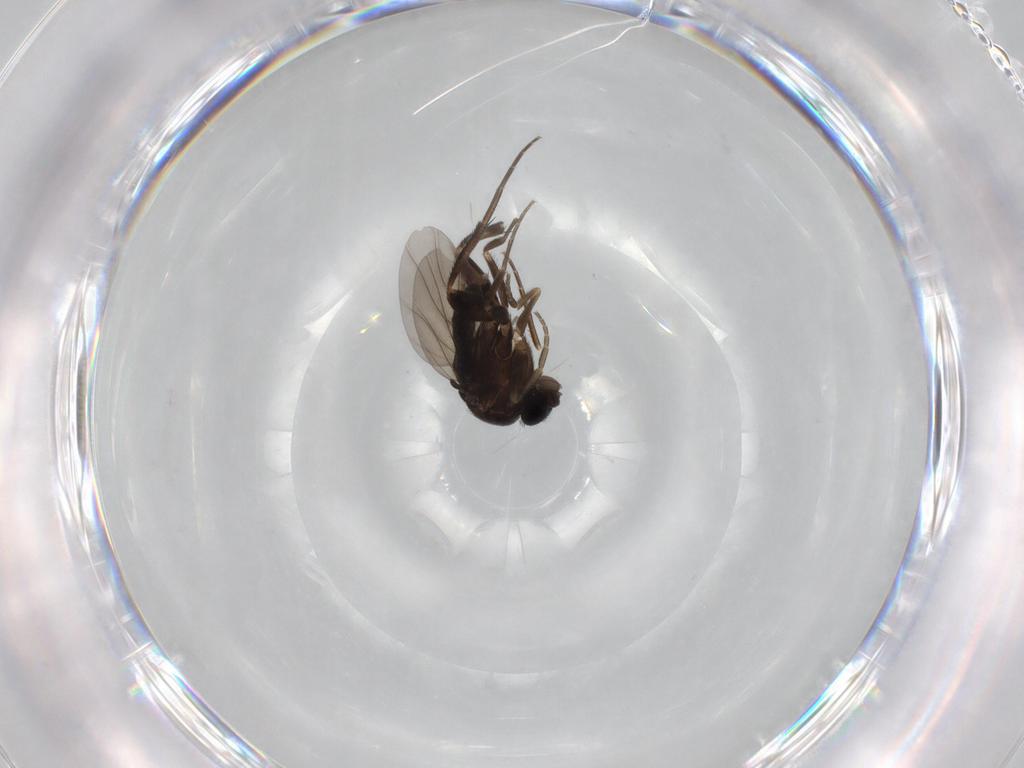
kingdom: Animalia
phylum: Arthropoda
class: Insecta
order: Diptera
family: Phoridae
